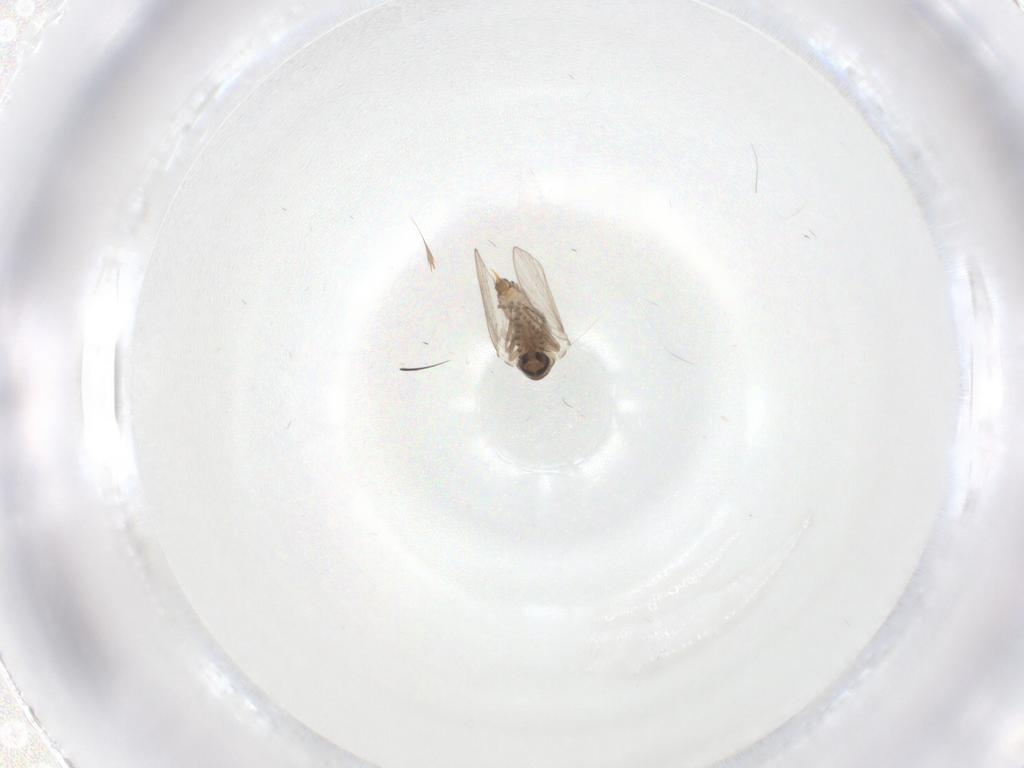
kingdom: Animalia
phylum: Arthropoda
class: Insecta
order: Diptera
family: Psychodidae
